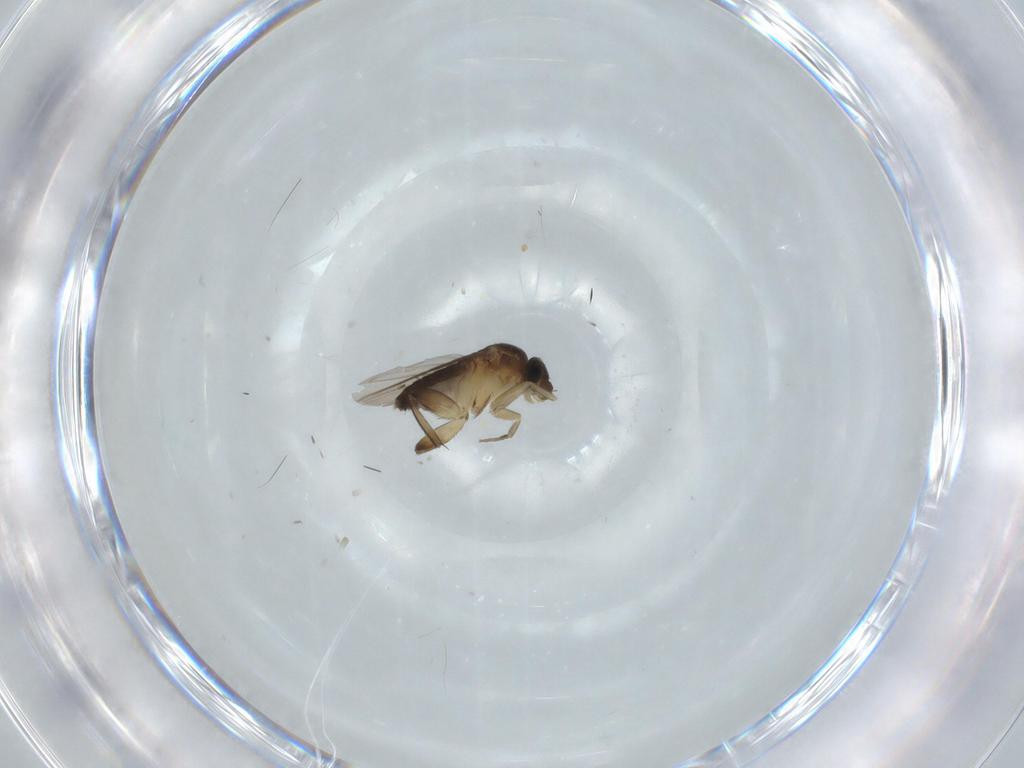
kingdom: Animalia
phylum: Arthropoda
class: Insecta
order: Diptera
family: Phoridae
